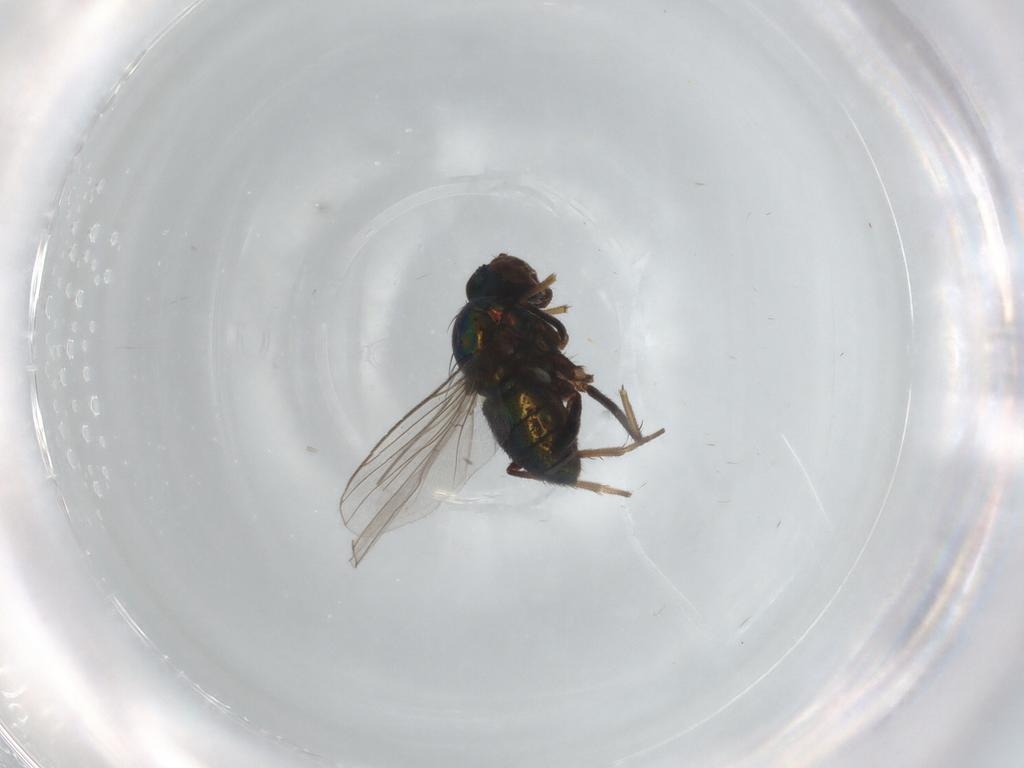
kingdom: Animalia
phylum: Arthropoda
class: Insecta
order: Diptera
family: Dolichopodidae
